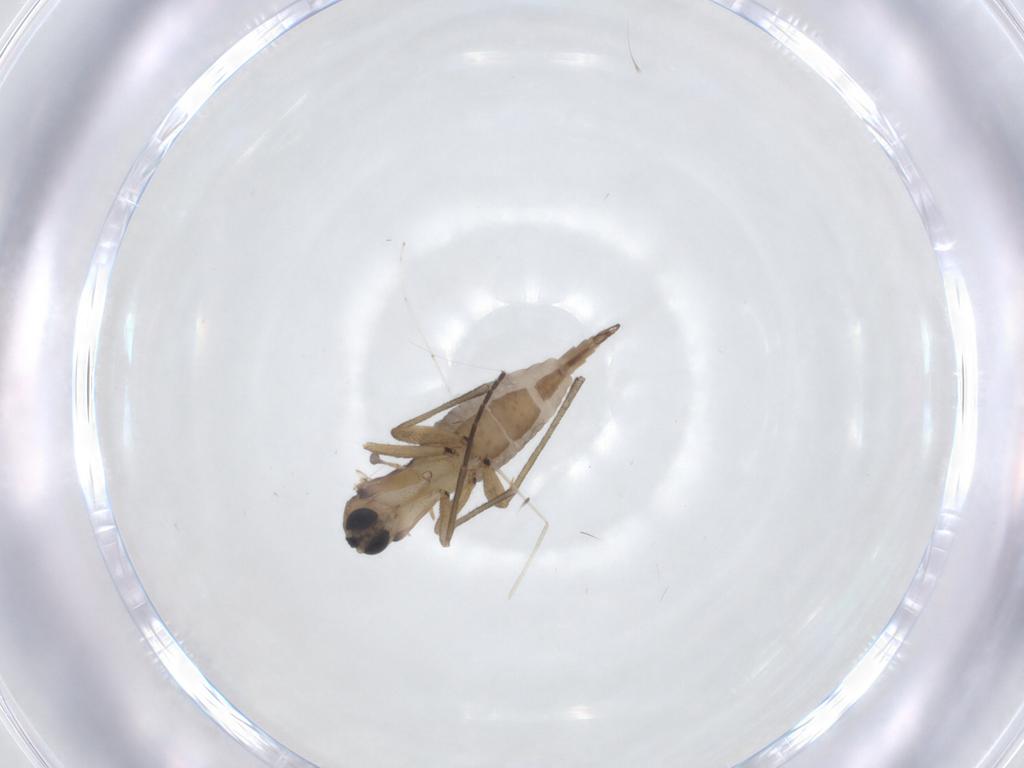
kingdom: Animalia
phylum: Arthropoda
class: Insecta
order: Diptera
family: Sciaridae
